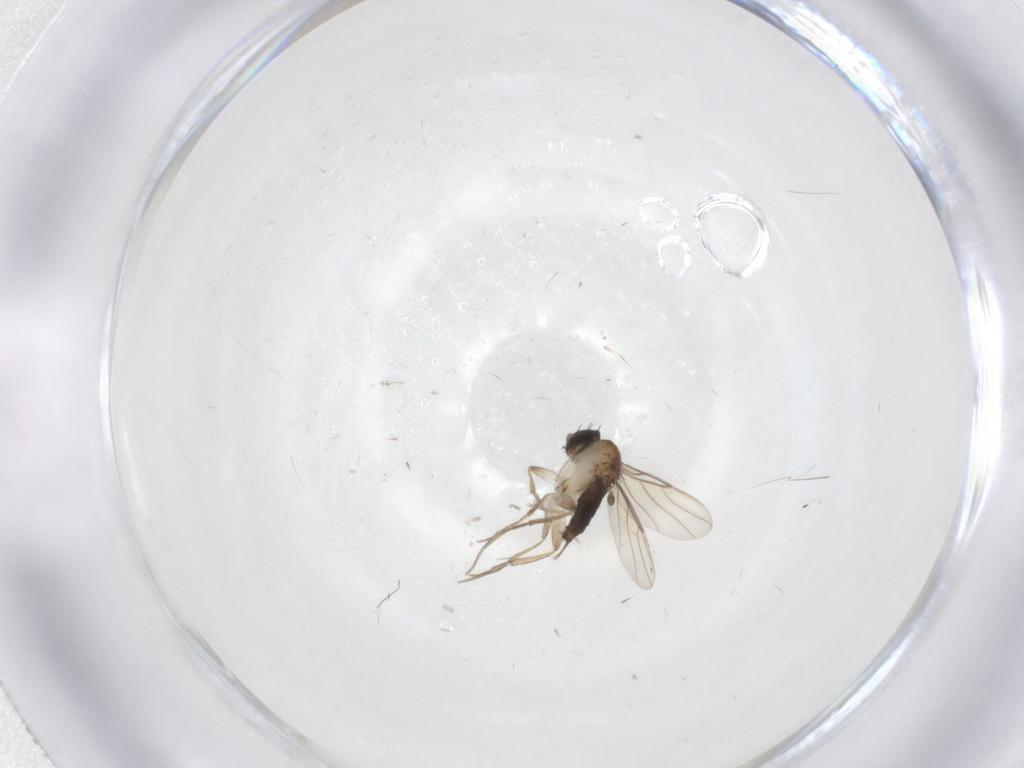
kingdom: Animalia
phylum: Arthropoda
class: Insecta
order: Diptera
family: Phoridae
